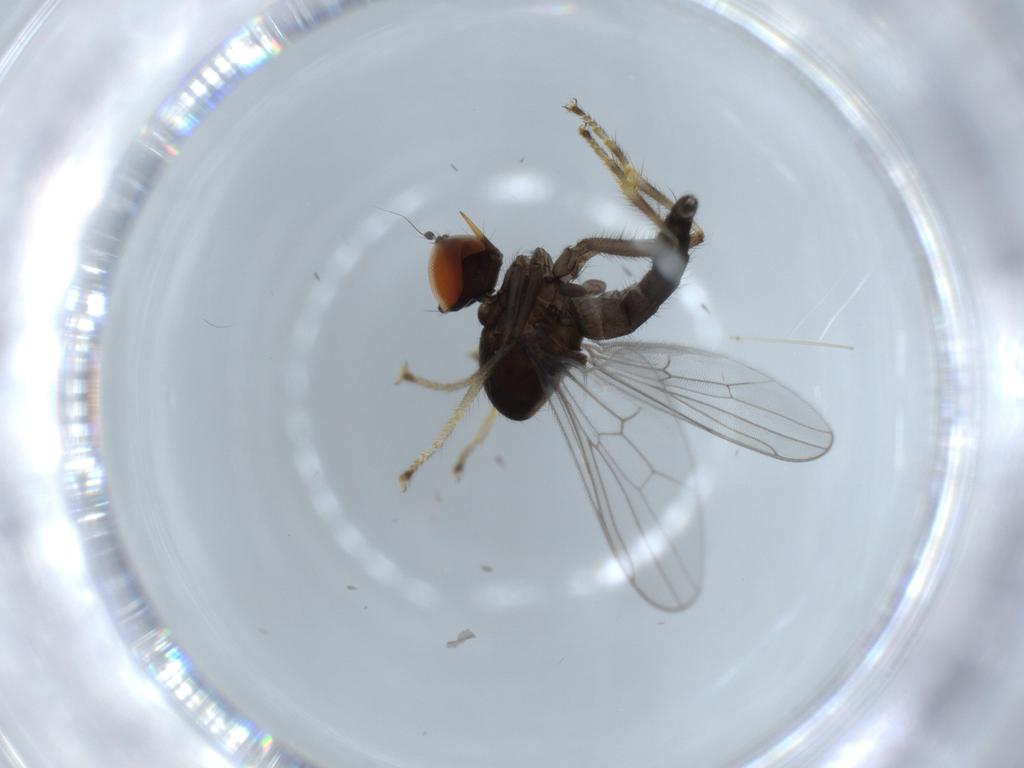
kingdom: Animalia
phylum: Arthropoda
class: Insecta
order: Diptera
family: Hybotidae
